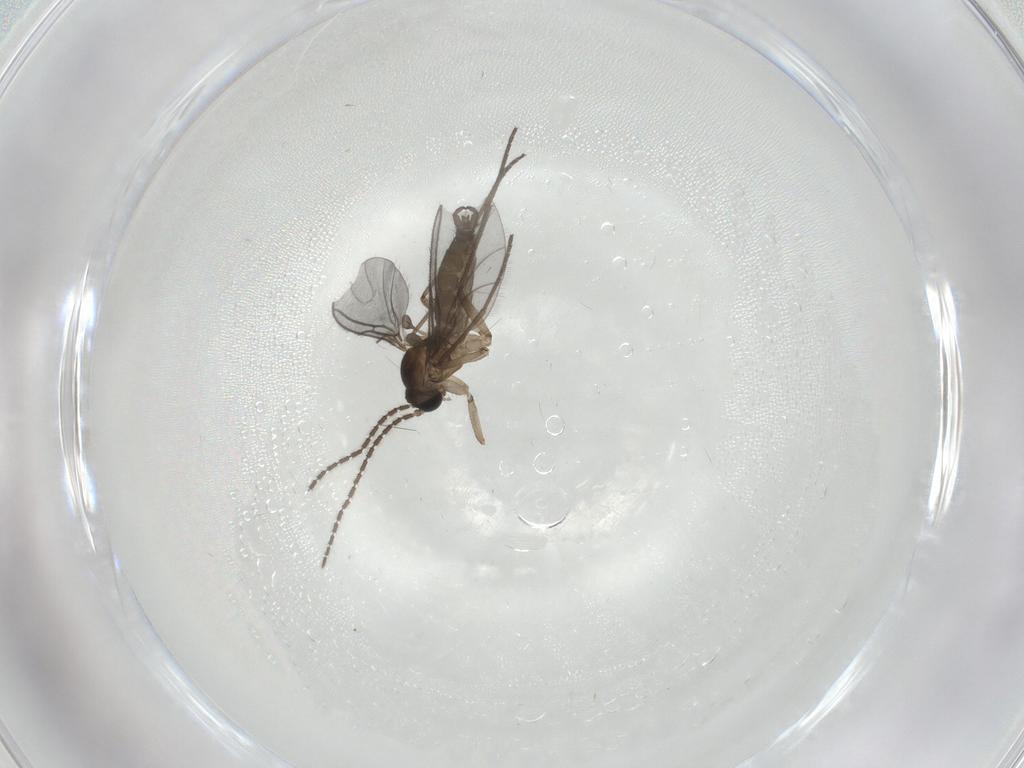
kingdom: Animalia
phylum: Arthropoda
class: Insecta
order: Diptera
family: Sciaridae
